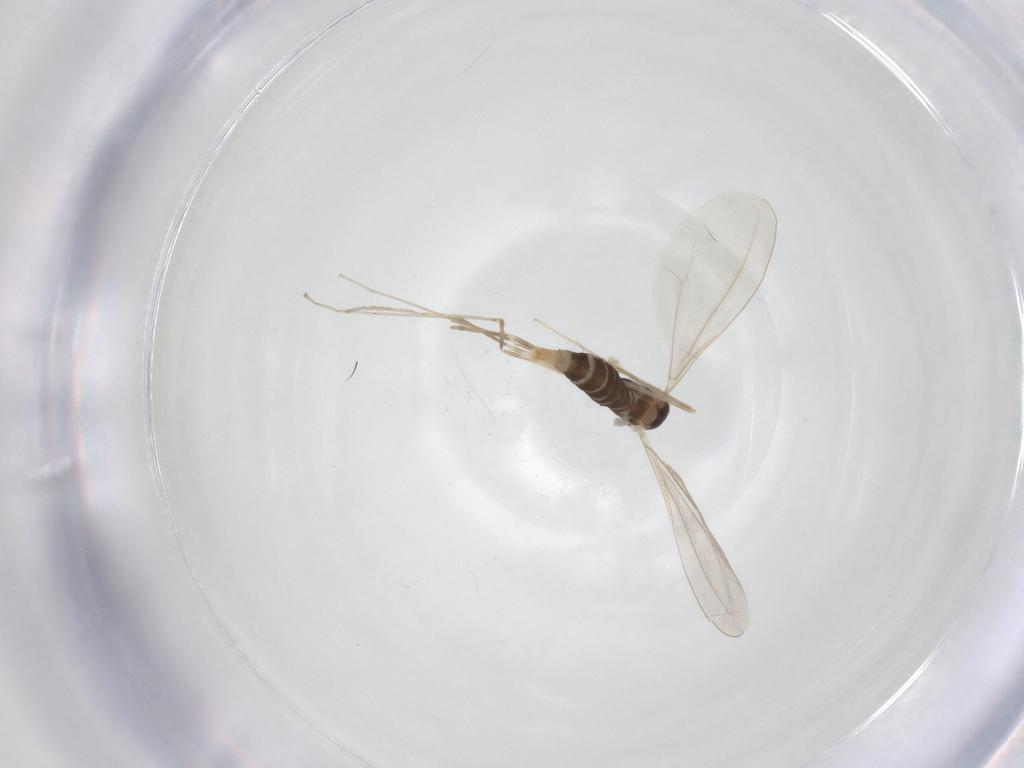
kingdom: Animalia
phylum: Arthropoda
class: Insecta
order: Diptera
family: Cecidomyiidae
